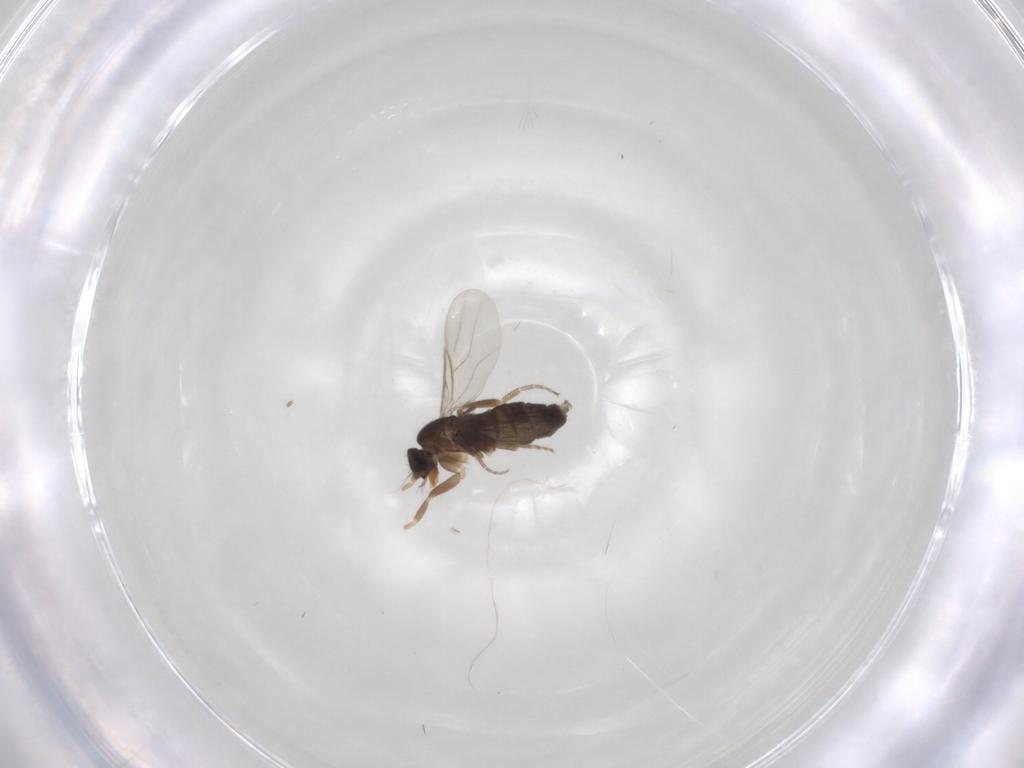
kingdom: Animalia
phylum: Arthropoda
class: Insecta
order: Diptera
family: Phoridae
